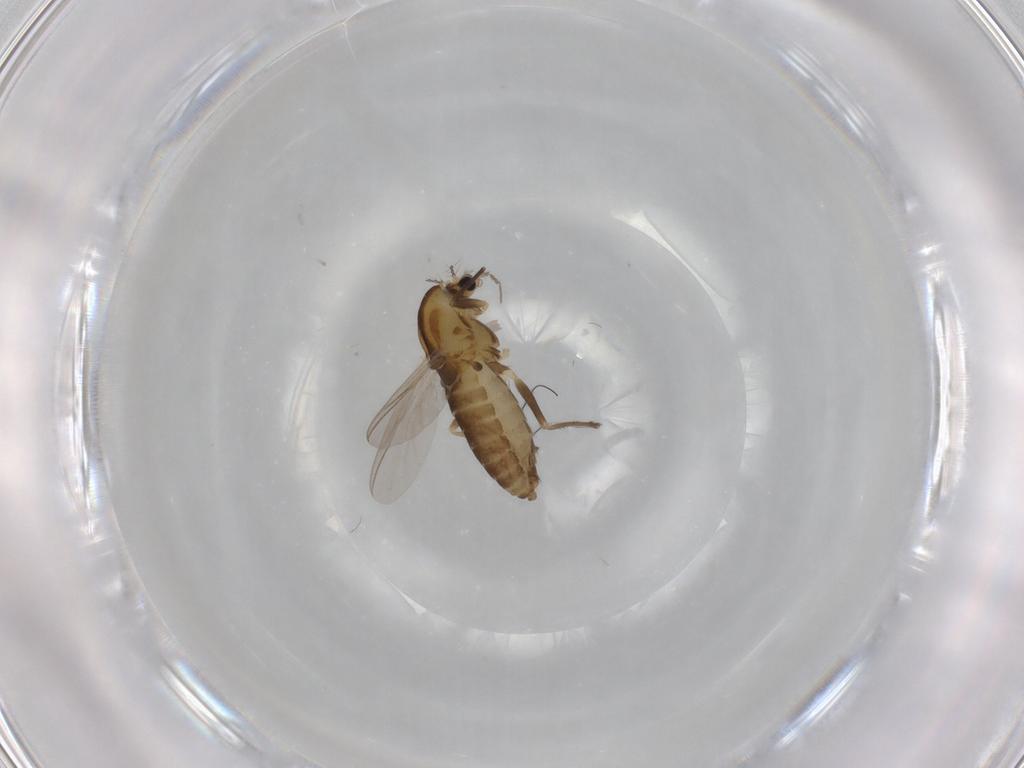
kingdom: Animalia
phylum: Arthropoda
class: Insecta
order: Diptera
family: Chironomidae
